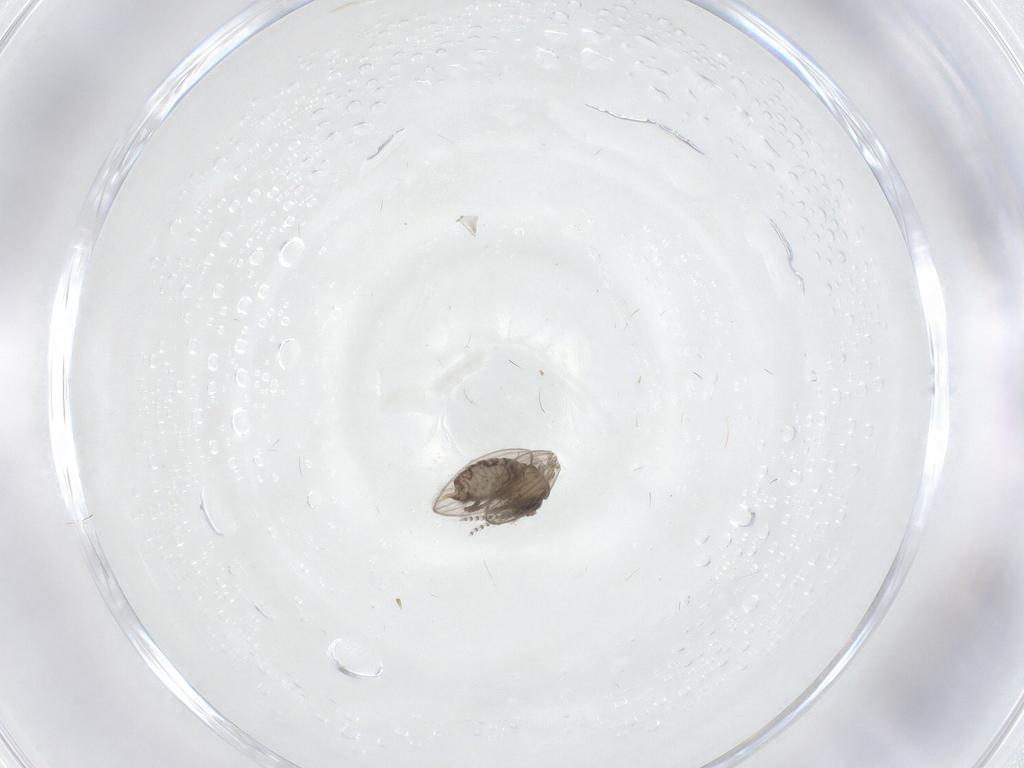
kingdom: Animalia
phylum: Arthropoda
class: Insecta
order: Diptera
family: Psychodidae
